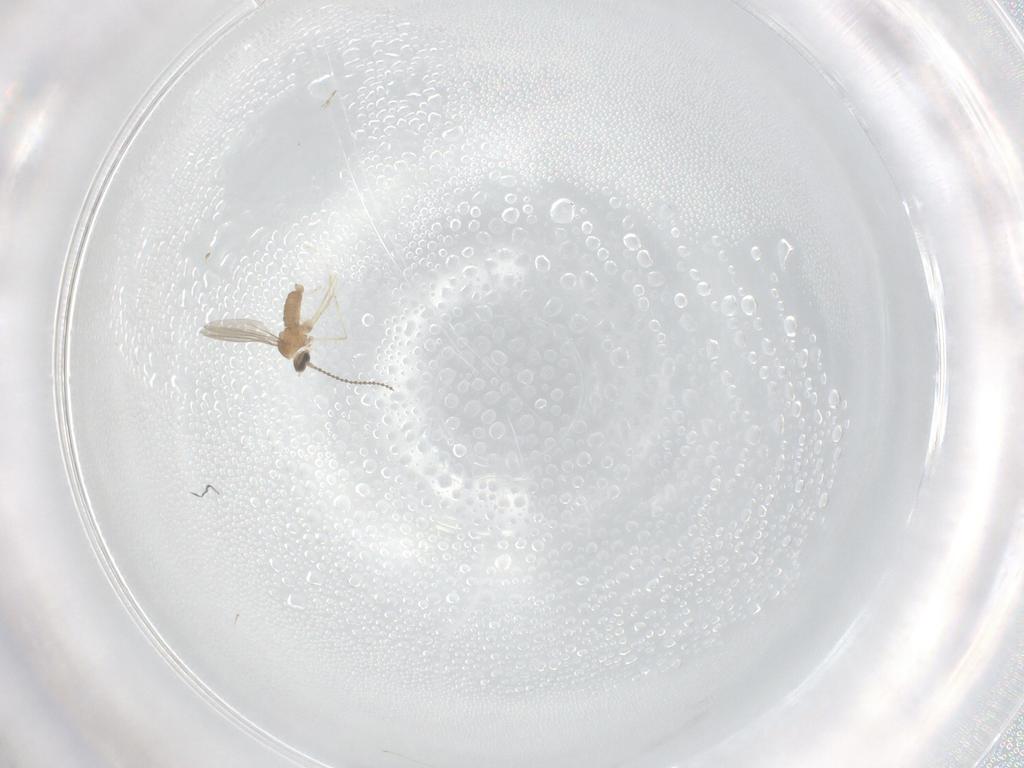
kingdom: Animalia
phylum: Arthropoda
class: Insecta
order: Diptera
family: Cecidomyiidae
